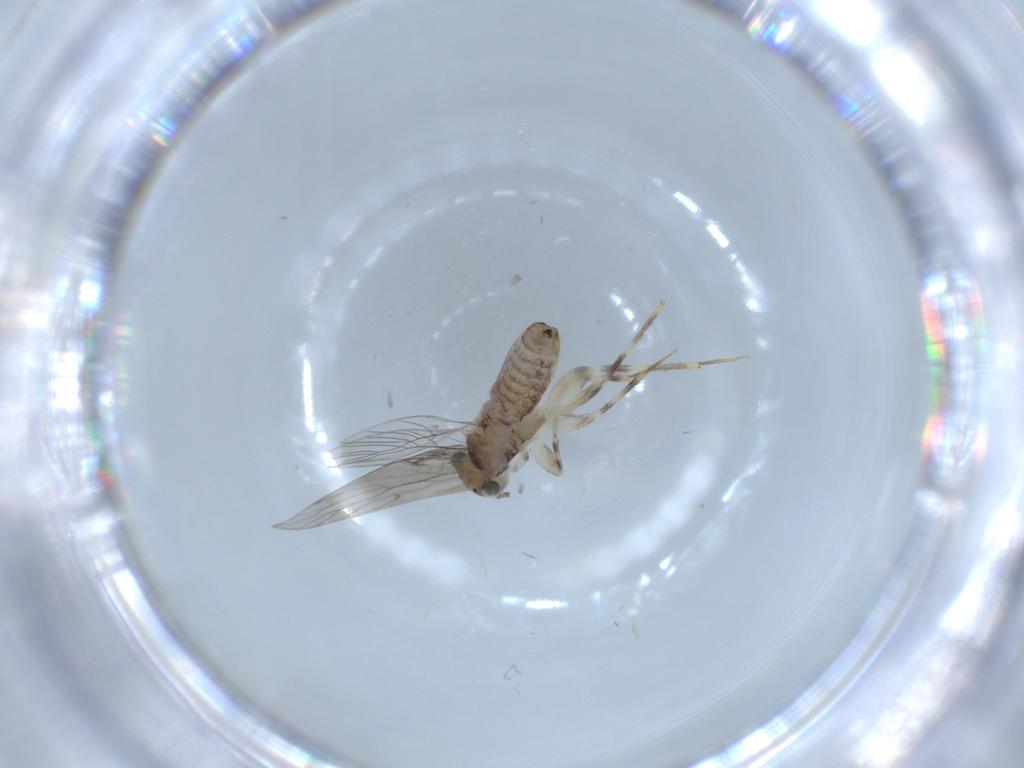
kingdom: Animalia
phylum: Arthropoda
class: Insecta
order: Psocodea
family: Lepidopsocidae
